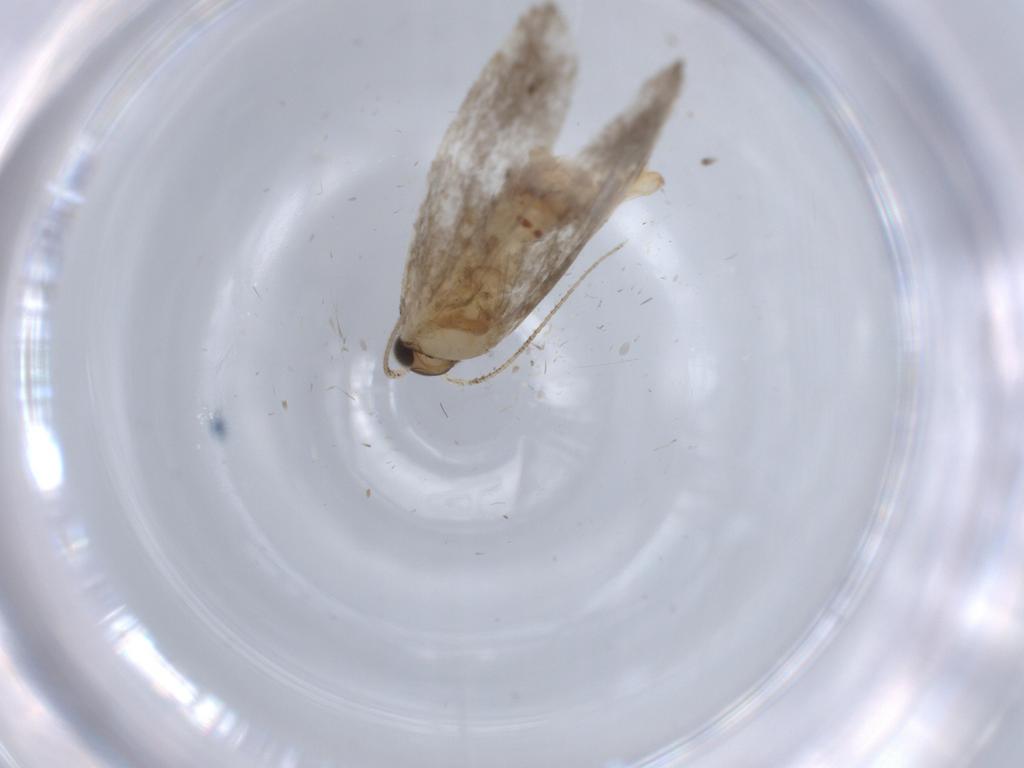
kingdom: Animalia
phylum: Arthropoda
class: Insecta
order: Lepidoptera
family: Tineidae
